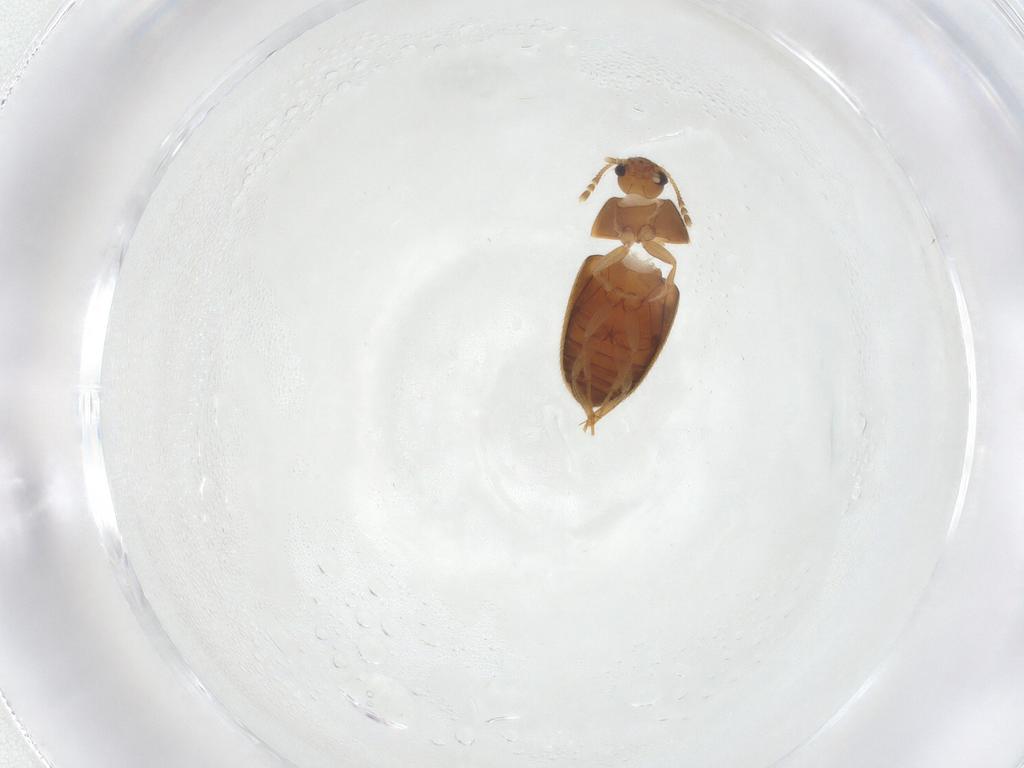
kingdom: Animalia
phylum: Arthropoda
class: Insecta
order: Coleoptera
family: Mycetophagidae
